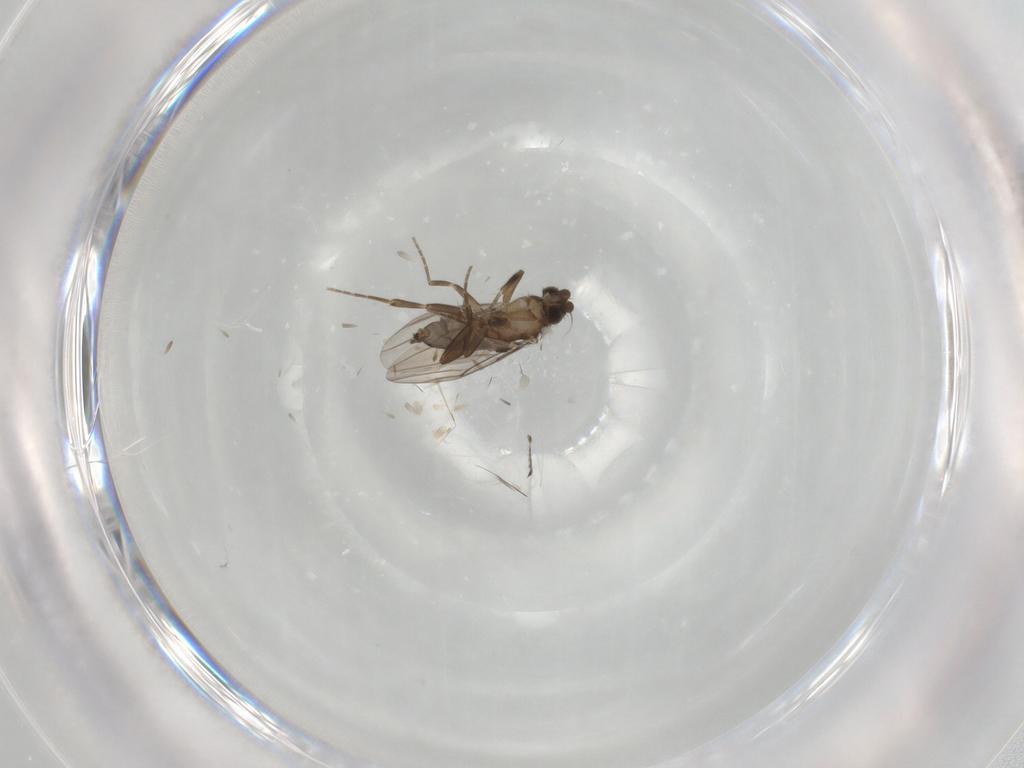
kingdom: Animalia
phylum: Arthropoda
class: Insecta
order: Diptera
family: Phoridae
